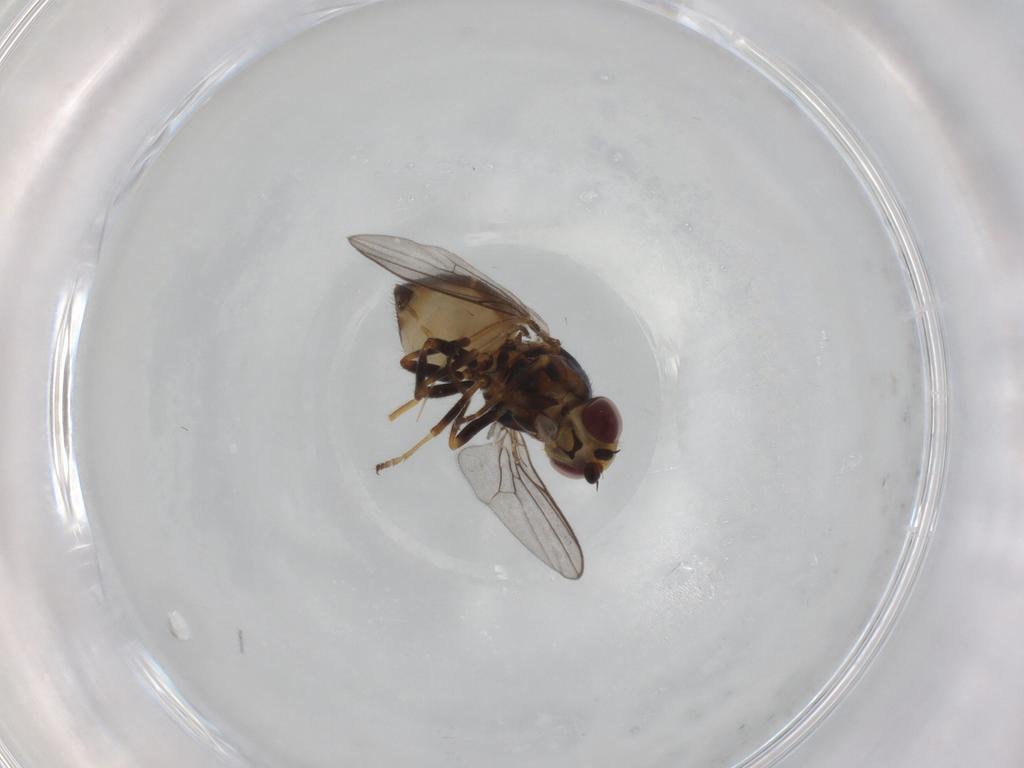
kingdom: Animalia
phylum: Arthropoda
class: Insecta
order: Diptera
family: Chloropidae
